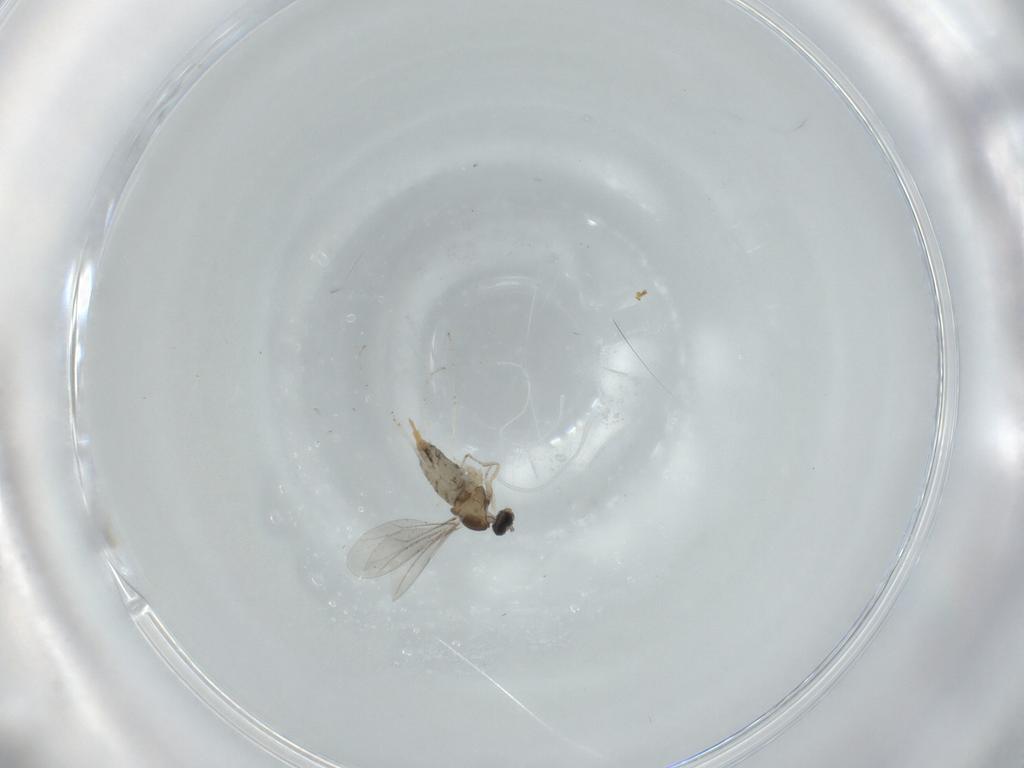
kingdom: Animalia
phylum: Arthropoda
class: Insecta
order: Diptera
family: Cecidomyiidae
